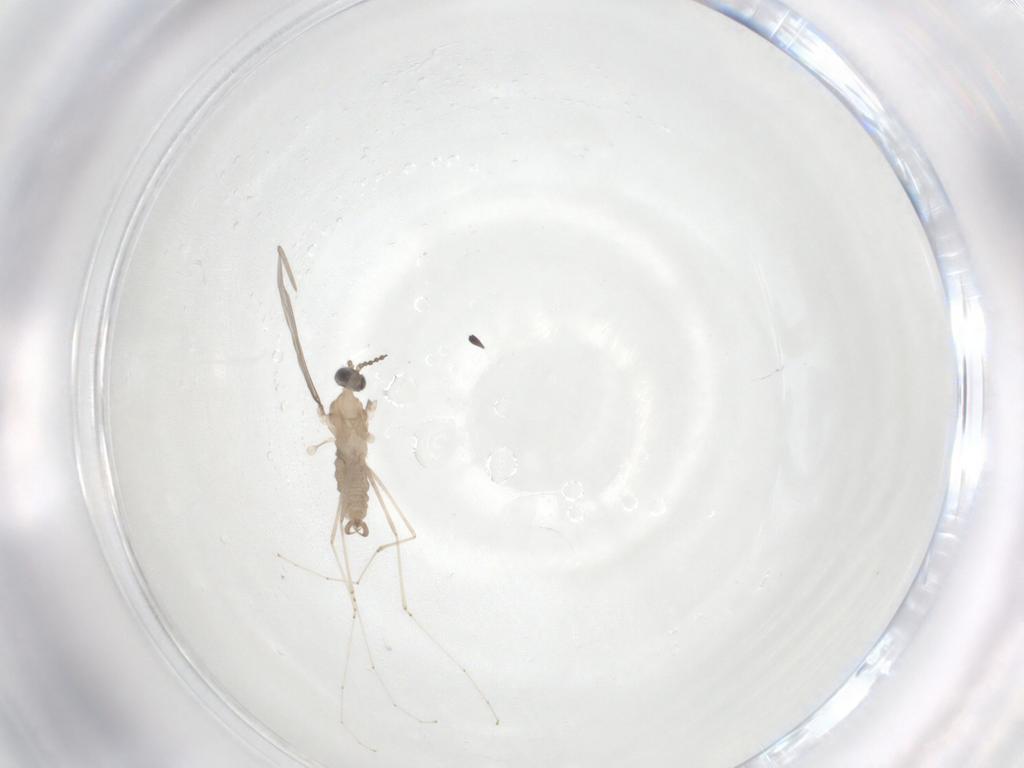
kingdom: Animalia
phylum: Arthropoda
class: Insecta
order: Diptera
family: Cecidomyiidae
